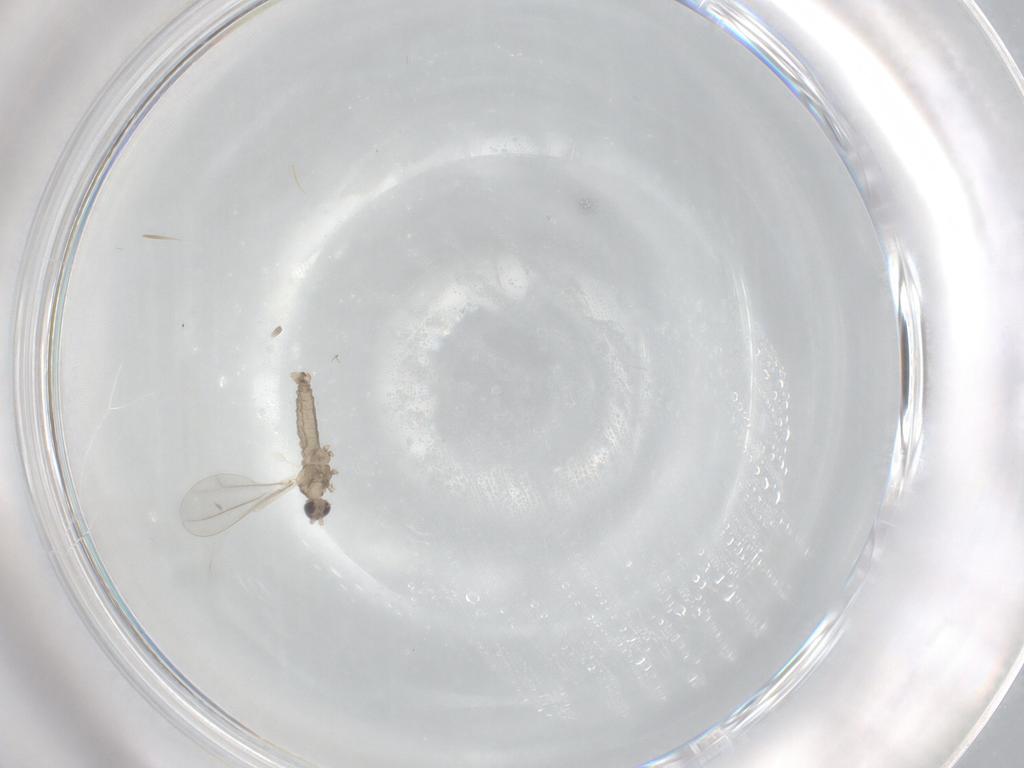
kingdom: Animalia
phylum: Arthropoda
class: Insecta
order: Diptera
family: Cecidomyiidae
